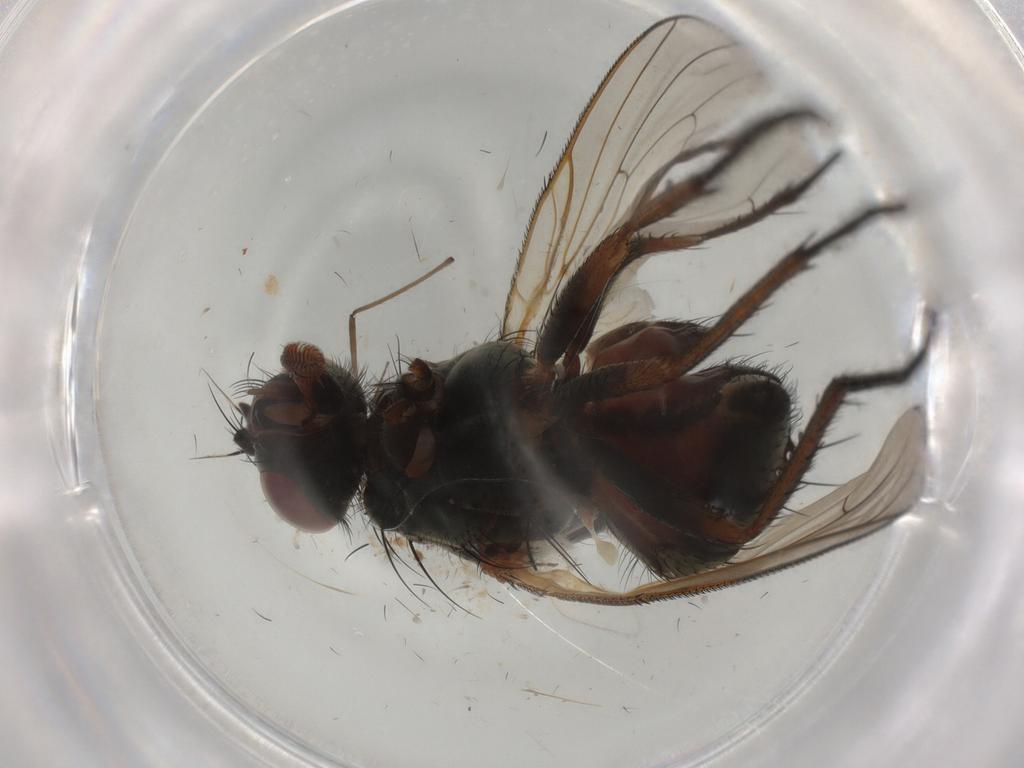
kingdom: Animalia
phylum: Arthropoda
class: Insecta
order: Diptera
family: Anthomyiidae
